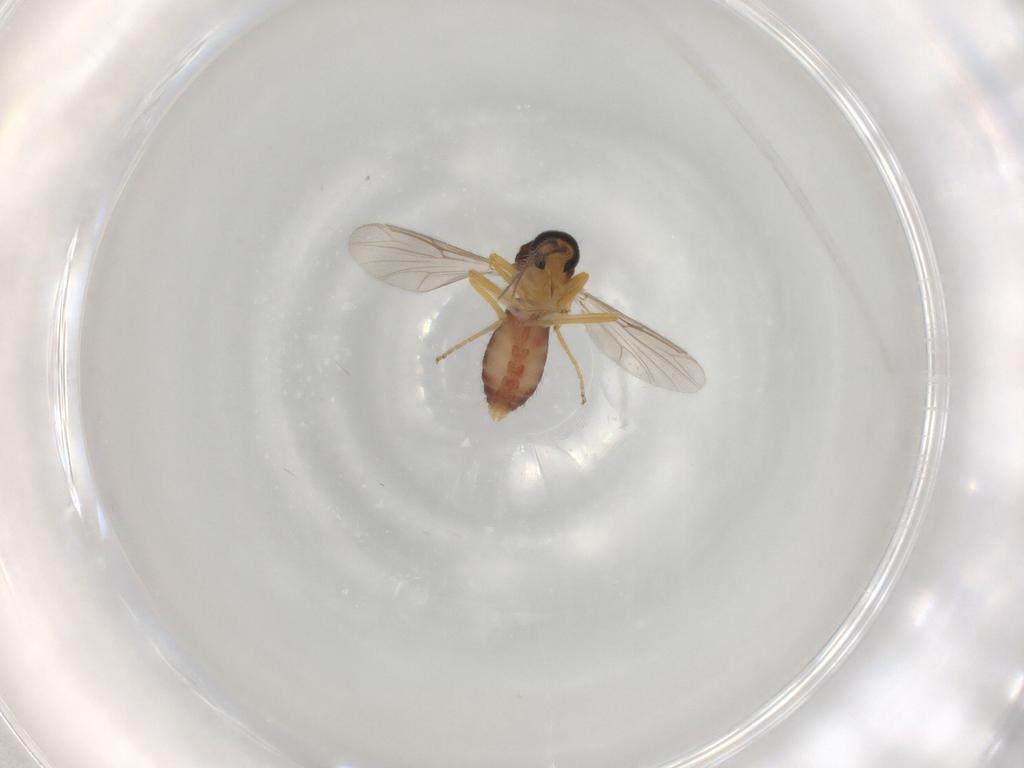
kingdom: Animalia
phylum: Arthropoda
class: Insecta
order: Diptera
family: Ceratopogonidae
